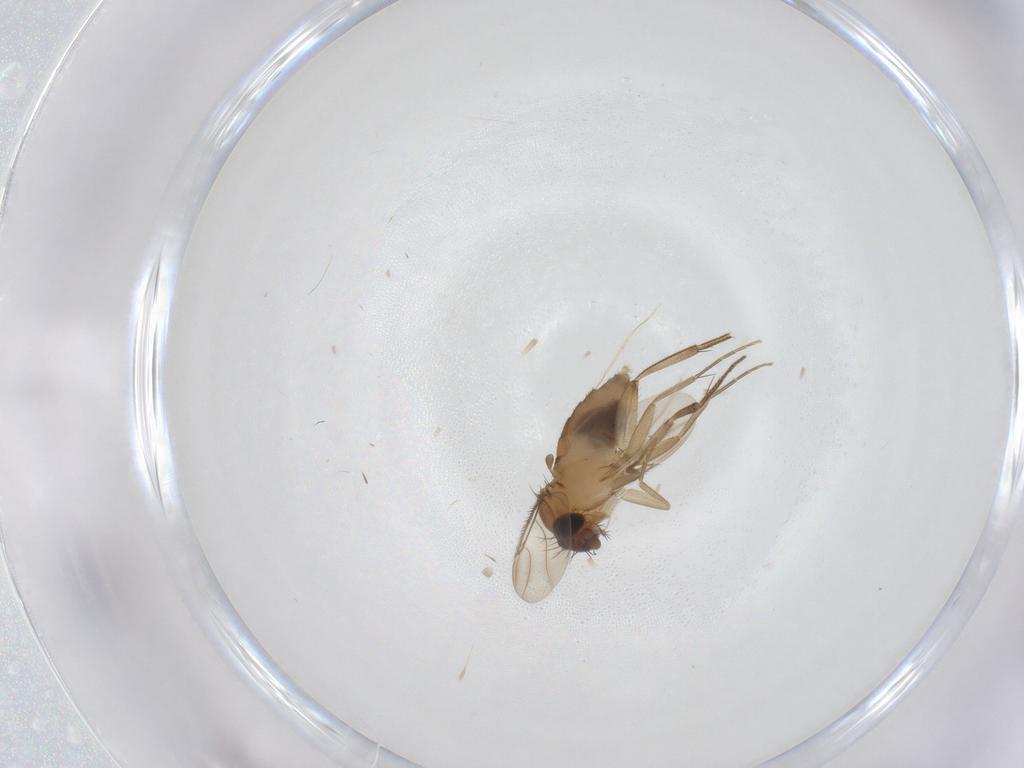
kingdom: Animalia
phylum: Arthropoda
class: Insecta
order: Diptera
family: Phoridae
